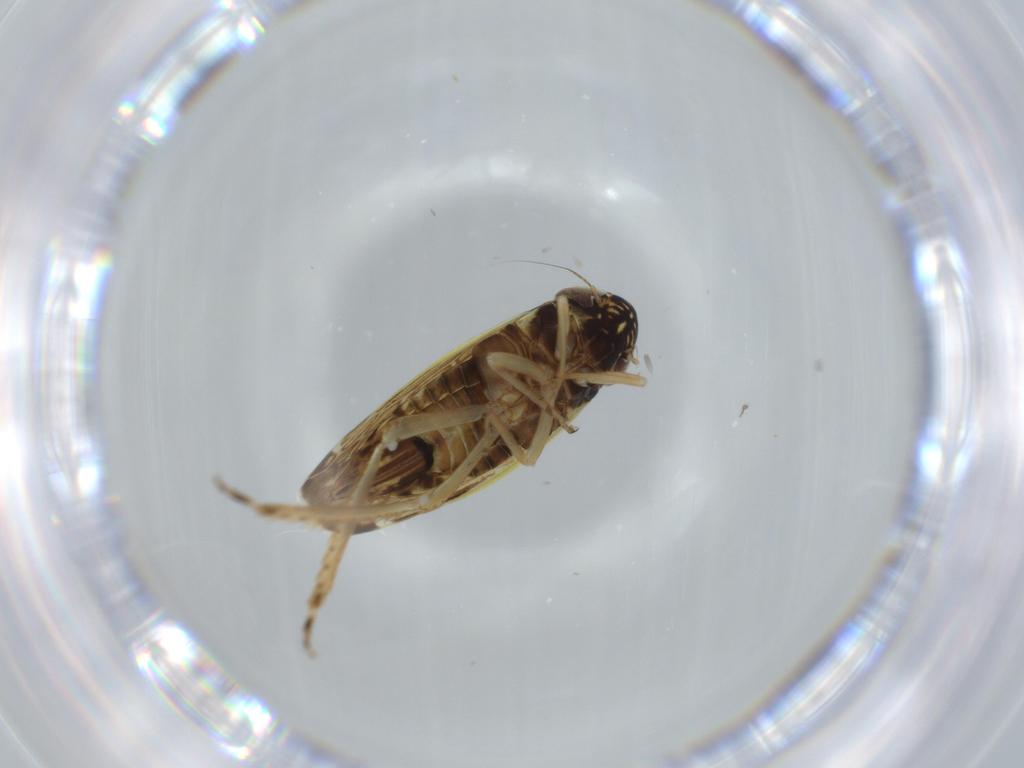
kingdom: Animalia
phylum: Arthropoda
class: Insecta
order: Hemiptera
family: Cicadellidae
